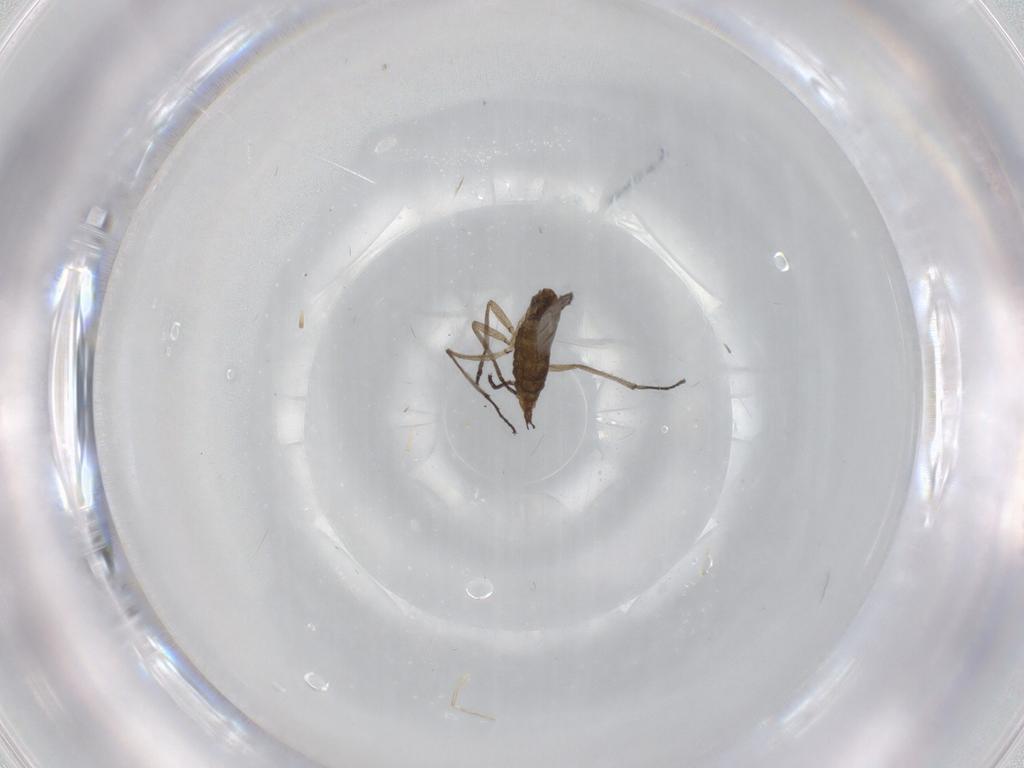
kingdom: Animalia
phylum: Arthropoda
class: Insecta
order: Diptera
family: Sciaridae
